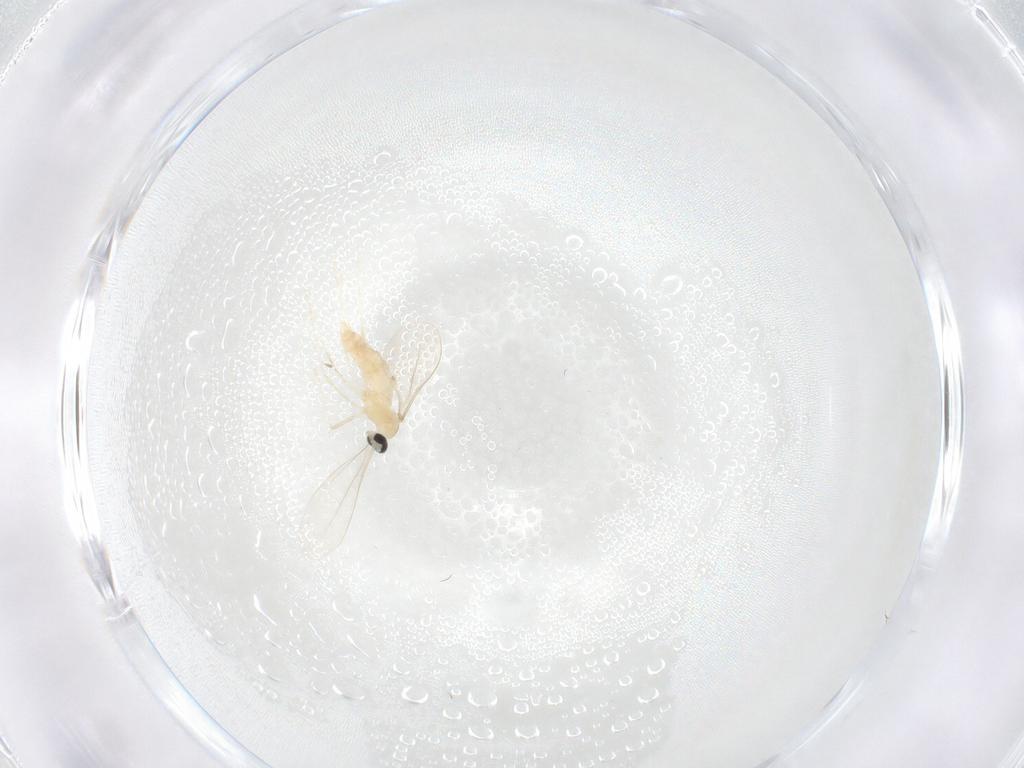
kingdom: Animalia
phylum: Arthropoda
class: Insecta
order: Diptera
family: Cecidomyiidae
